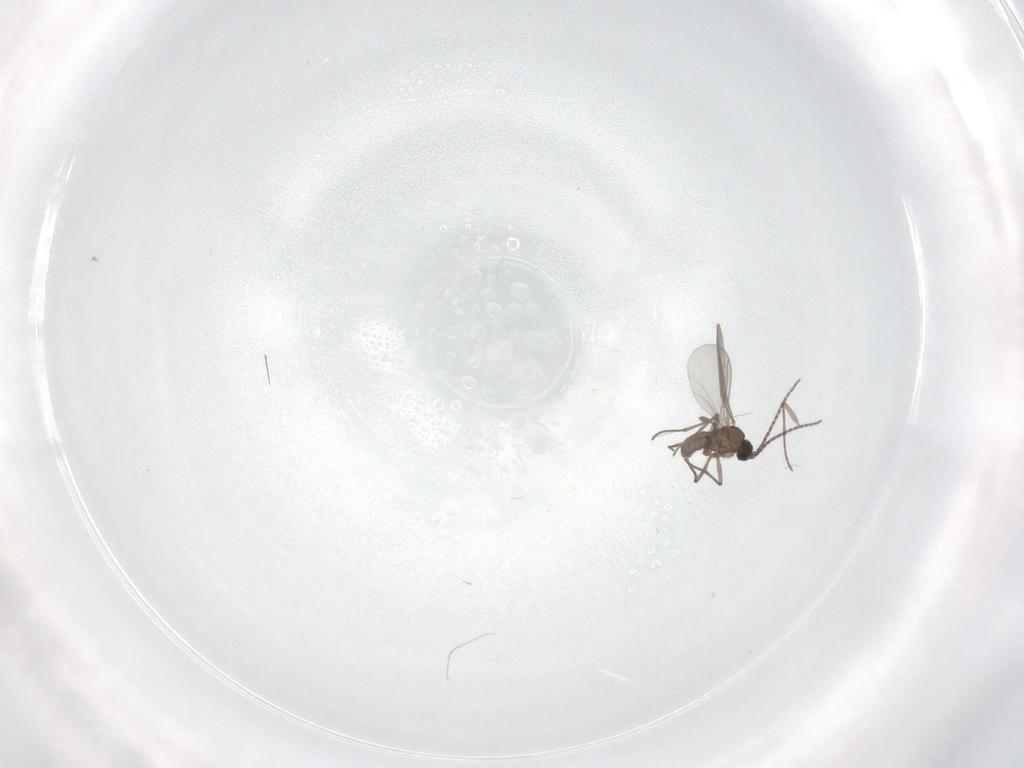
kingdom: Animalia
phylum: Arthropoda
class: Insecta
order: Diptera
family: Sciaridae
